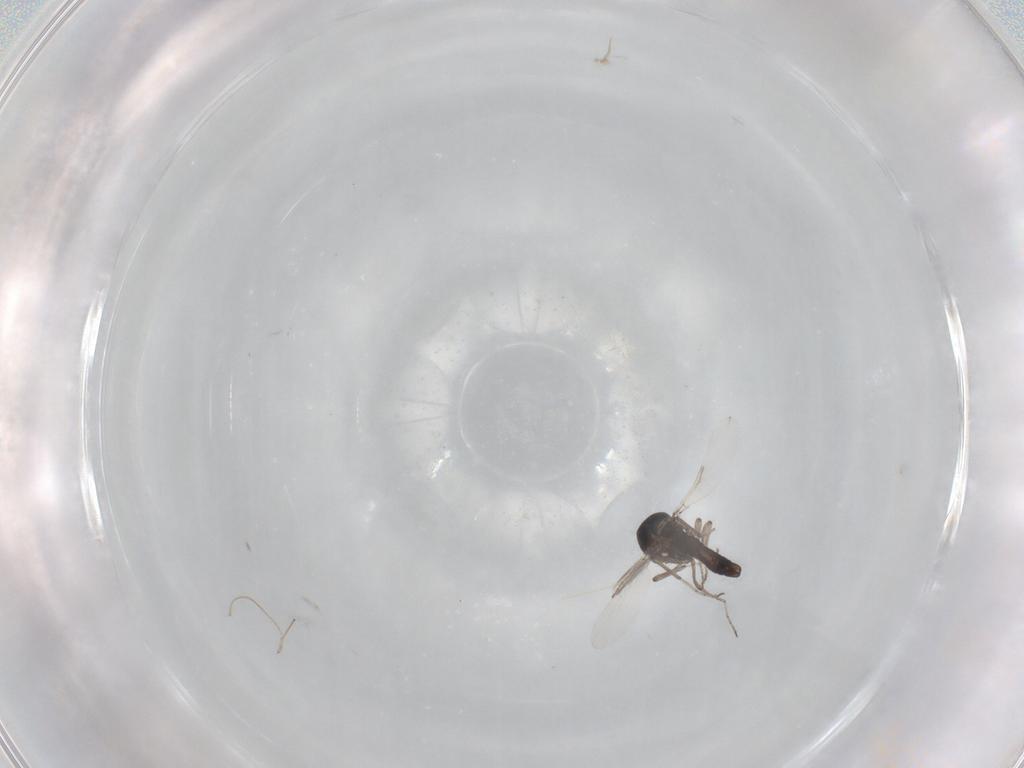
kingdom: Animalia
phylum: Arthropoda
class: Insecta
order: Diptera
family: Ceratopogonidae
